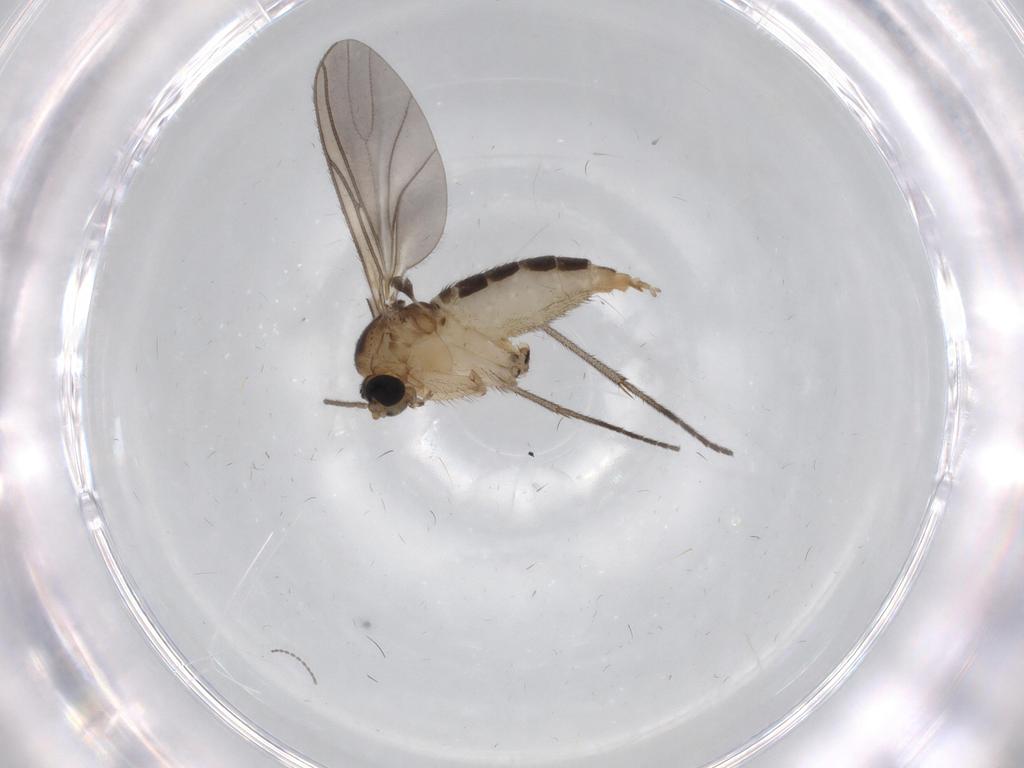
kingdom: Animalia
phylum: Arthropoda
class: Insecta
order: Diptera
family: Sciaridae
